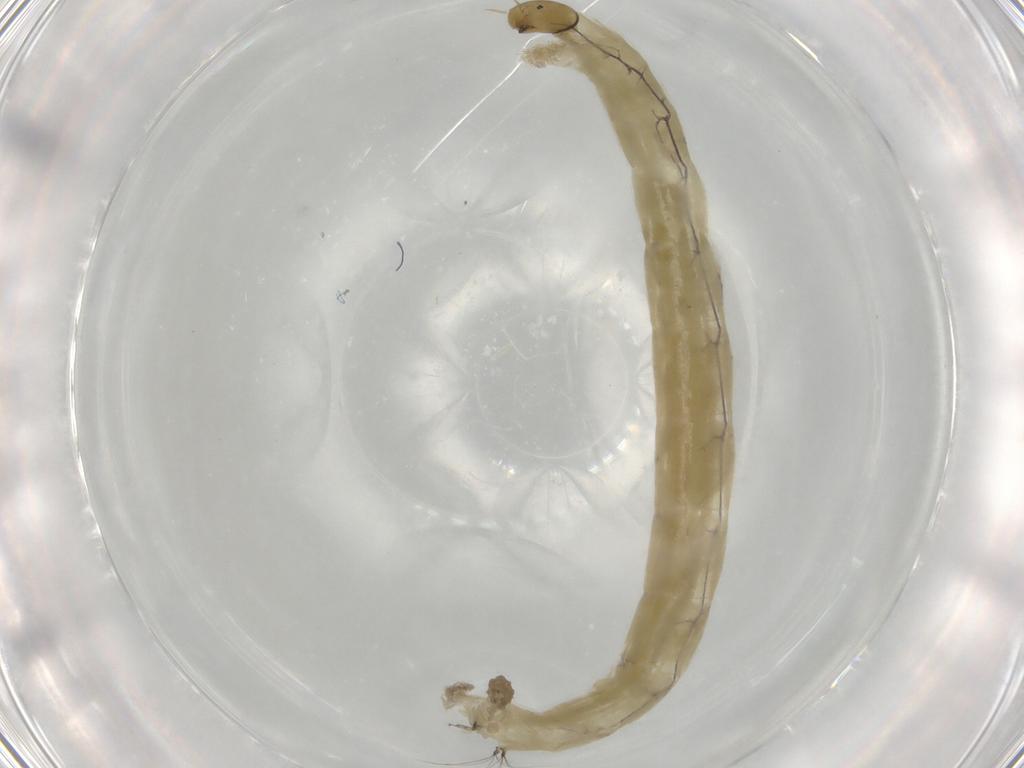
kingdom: Animalia
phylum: Arthropoda
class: Insecta
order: Diptera
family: Chironomidae
